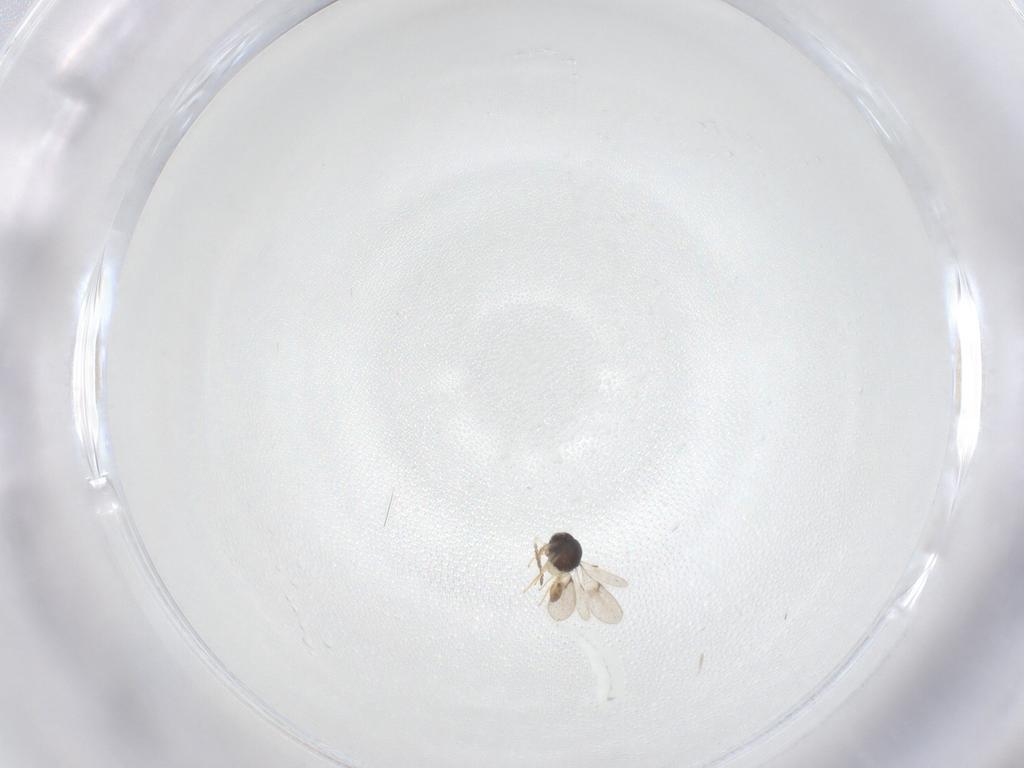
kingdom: Animalia
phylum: Arthropoda
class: Insecta
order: Hymenoptera
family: Scelionidae
